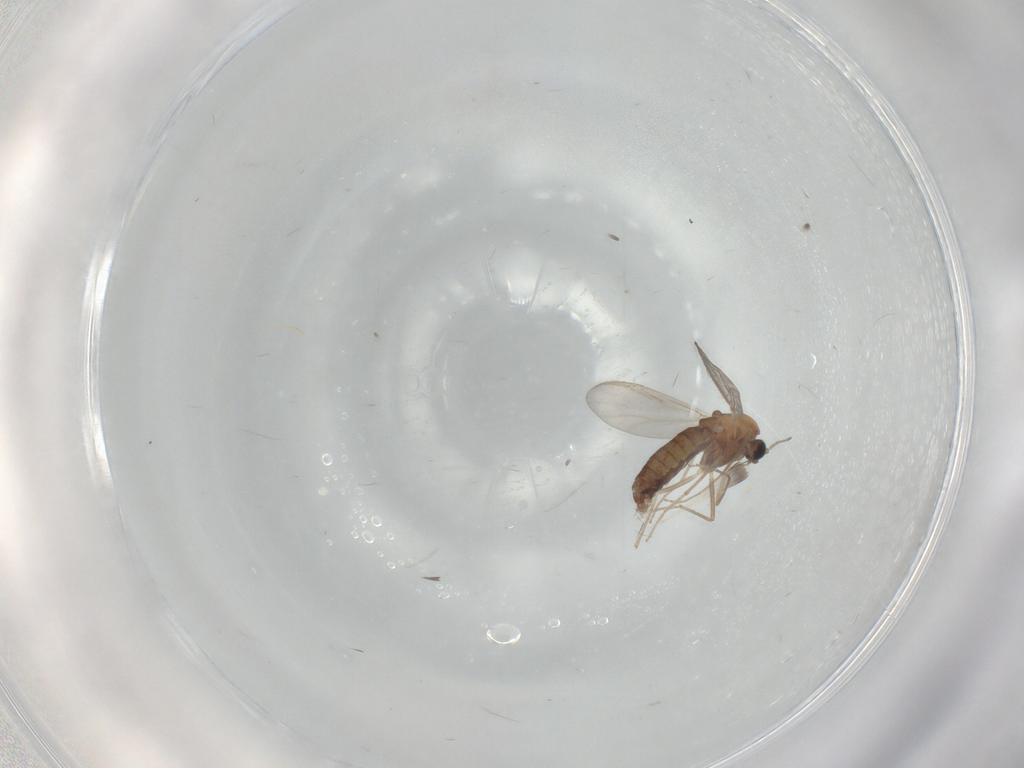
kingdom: Animalia
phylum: Arthropoda
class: Insecta
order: Diptera
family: Chironomidae
